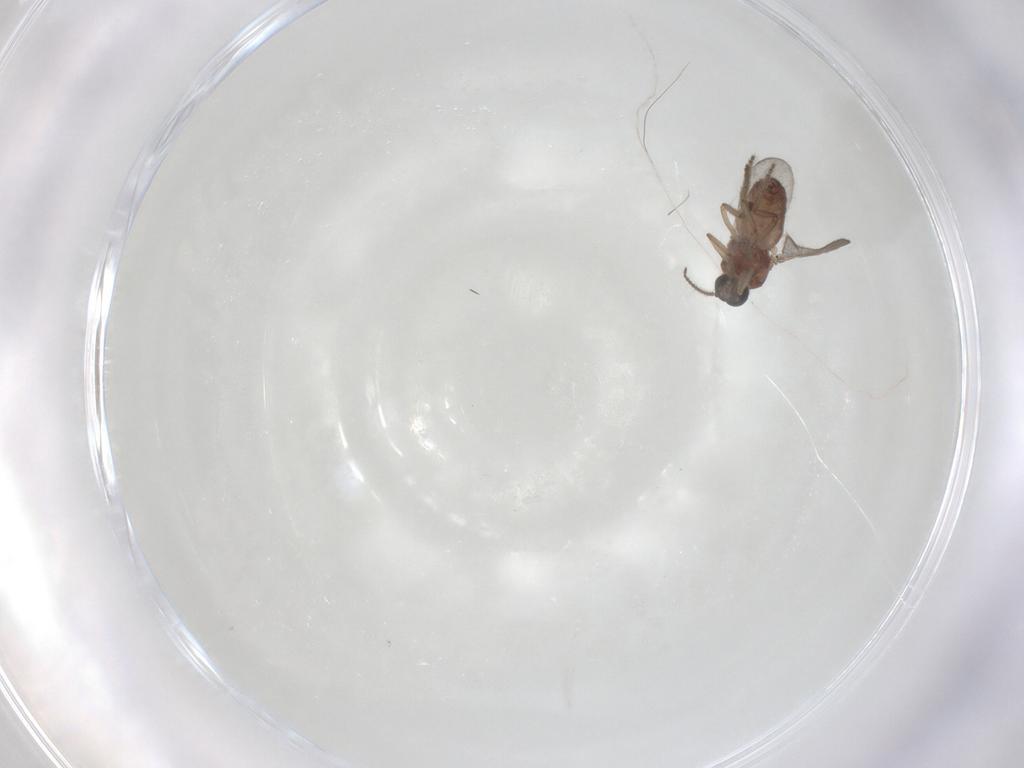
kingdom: Animalia
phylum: Arthropoda
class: Insecta
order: Diptera
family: Ceratopogonidae
